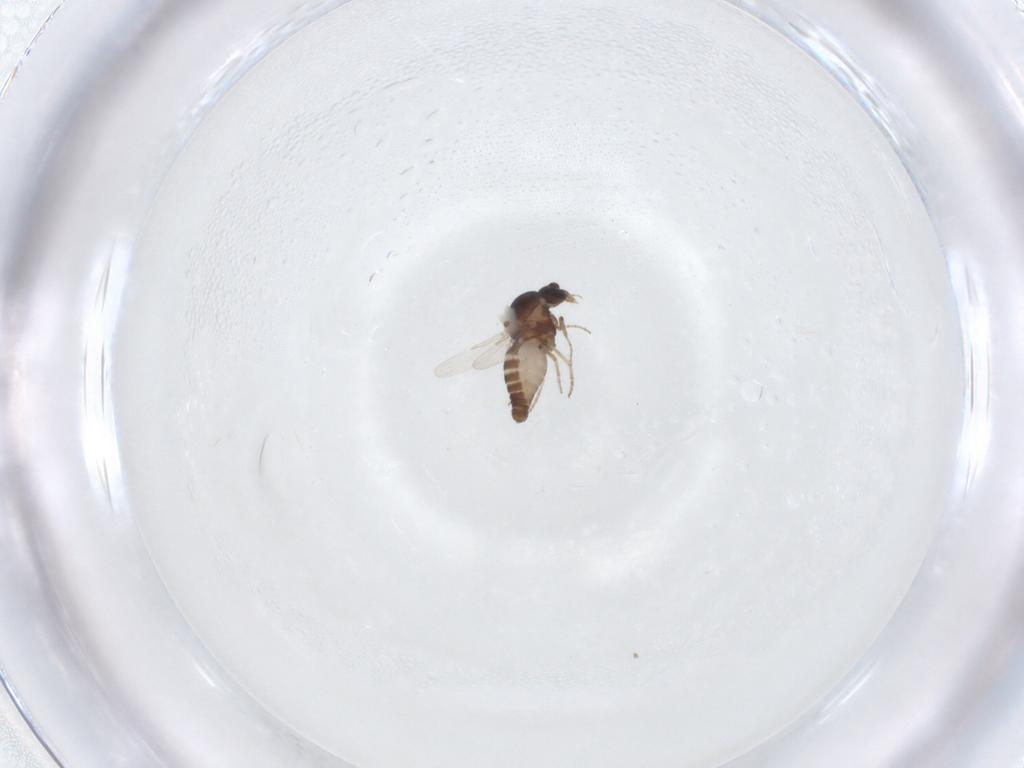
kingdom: Animalia
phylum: Arthropoda
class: Insecta
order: Diptera
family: Ceratopogonidae
